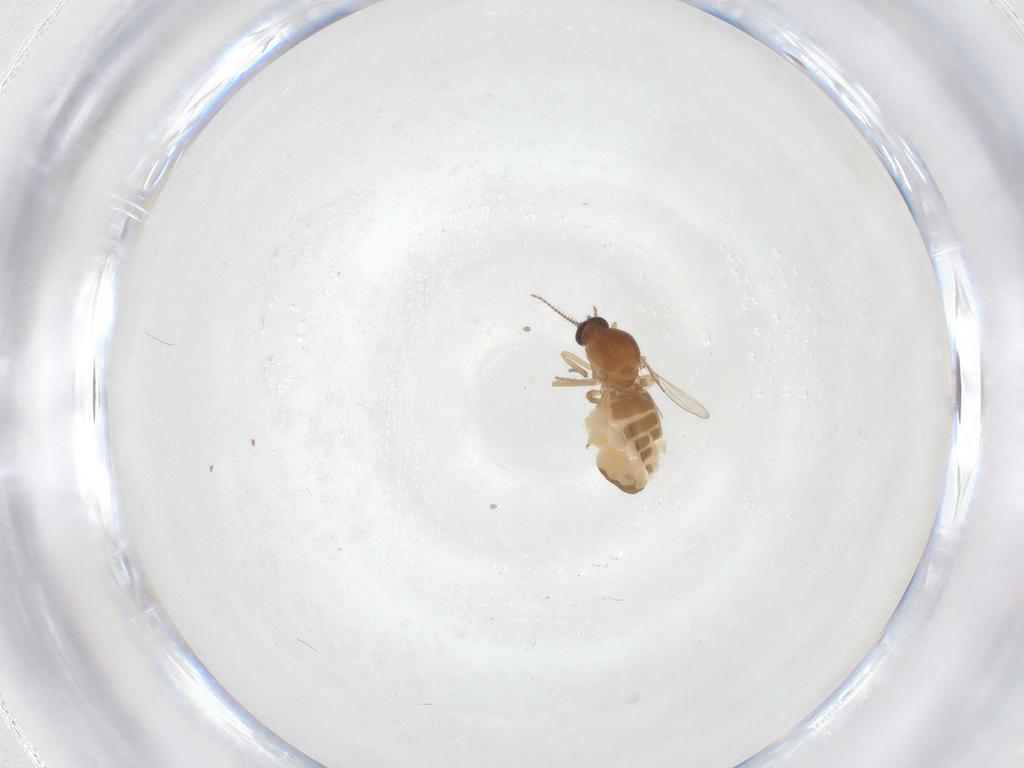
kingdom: Animalia
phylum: Arthropoda
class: Insecta
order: Diptera
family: Ceratopogonidae
